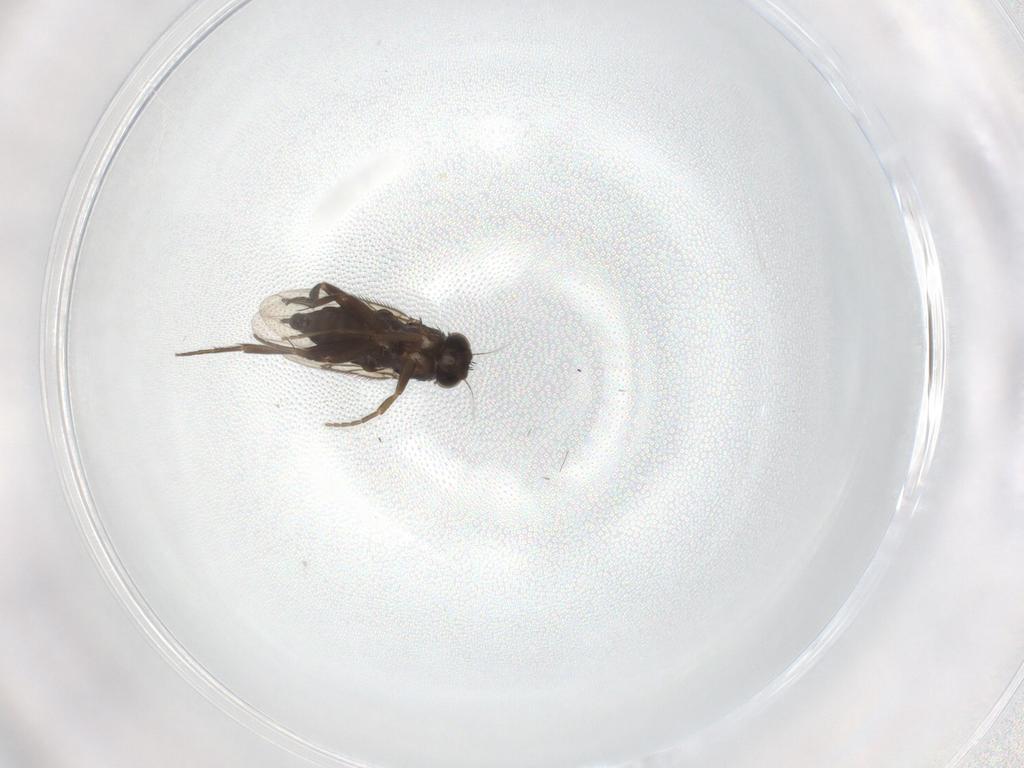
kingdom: Animalia
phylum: Arthropoda
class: Insecta
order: Diptera
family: Phoridae
